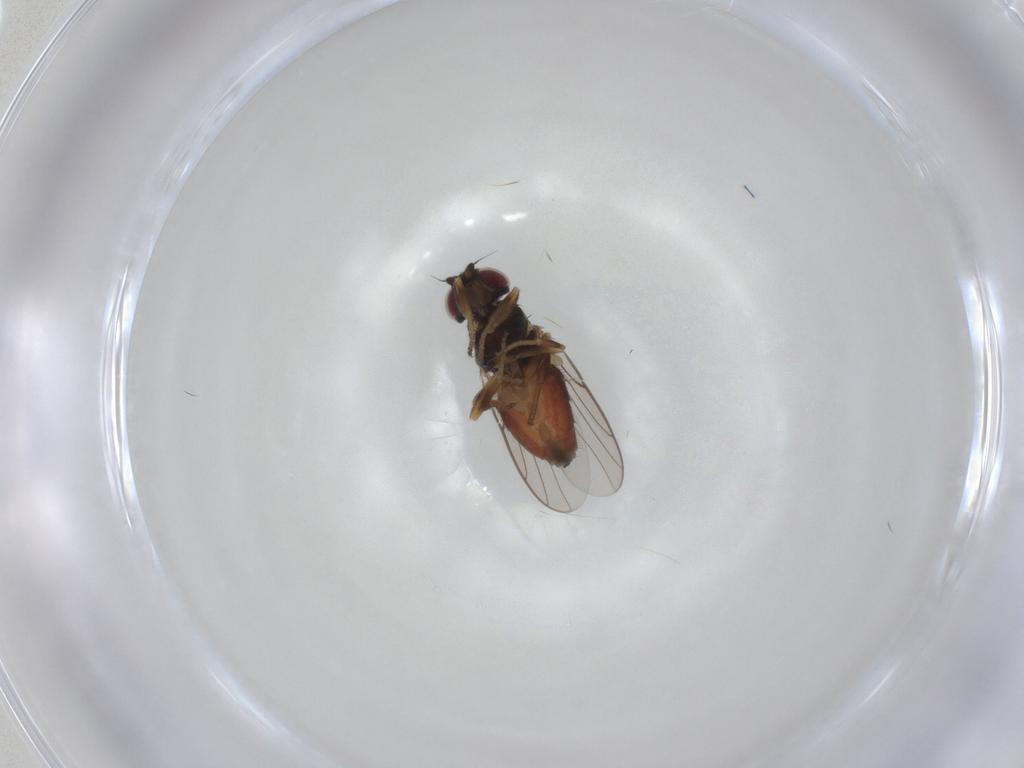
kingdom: Animalia
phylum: Arthropoda
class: Insecta
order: Diptera
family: Chloropidae
